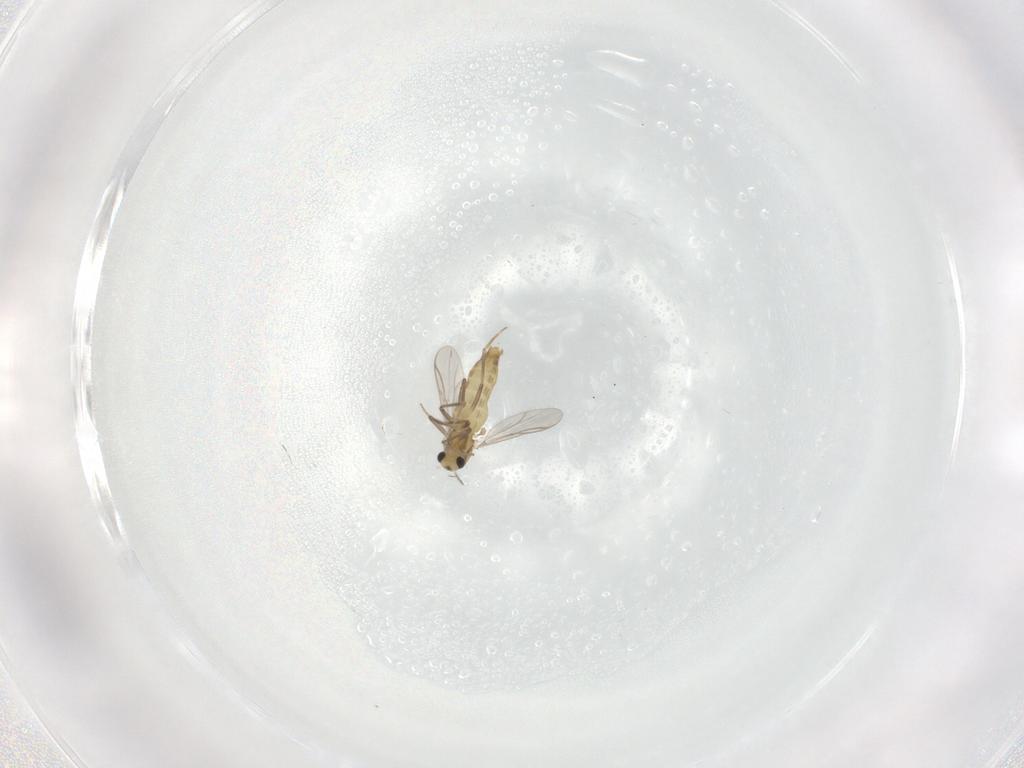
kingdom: Animalia
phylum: Arthropoda
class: Insecta
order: Diptera
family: Chironomidae
